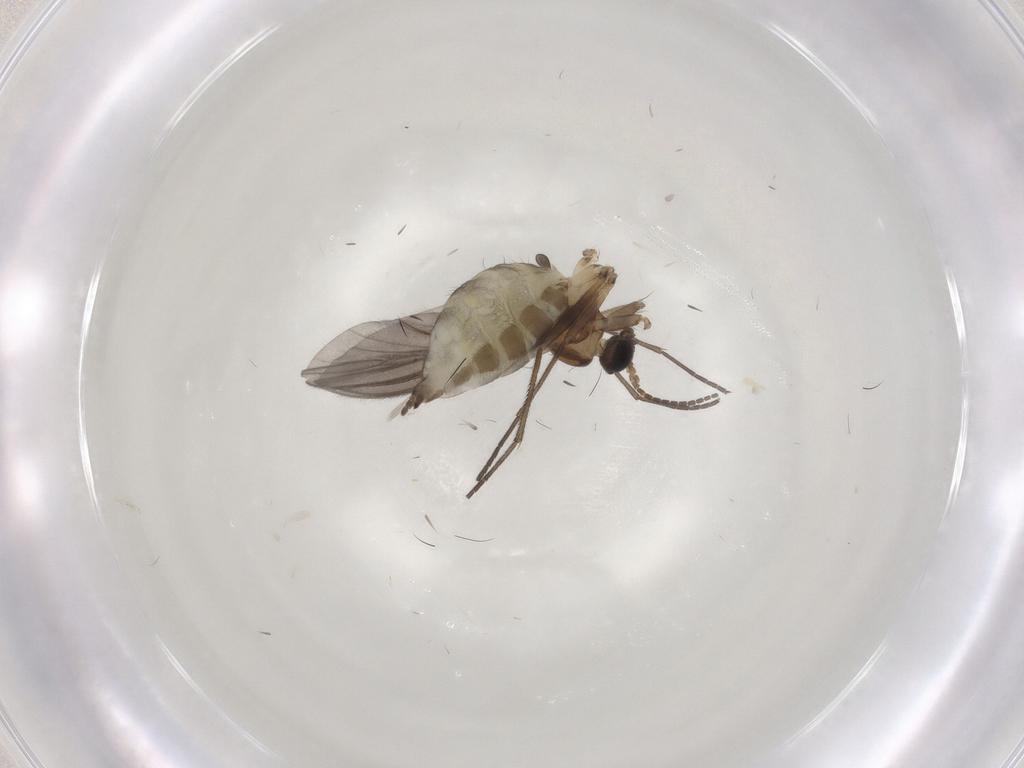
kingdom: Animalia
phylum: Arthropoda
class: Insecta
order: Diptera
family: Sciaridae
